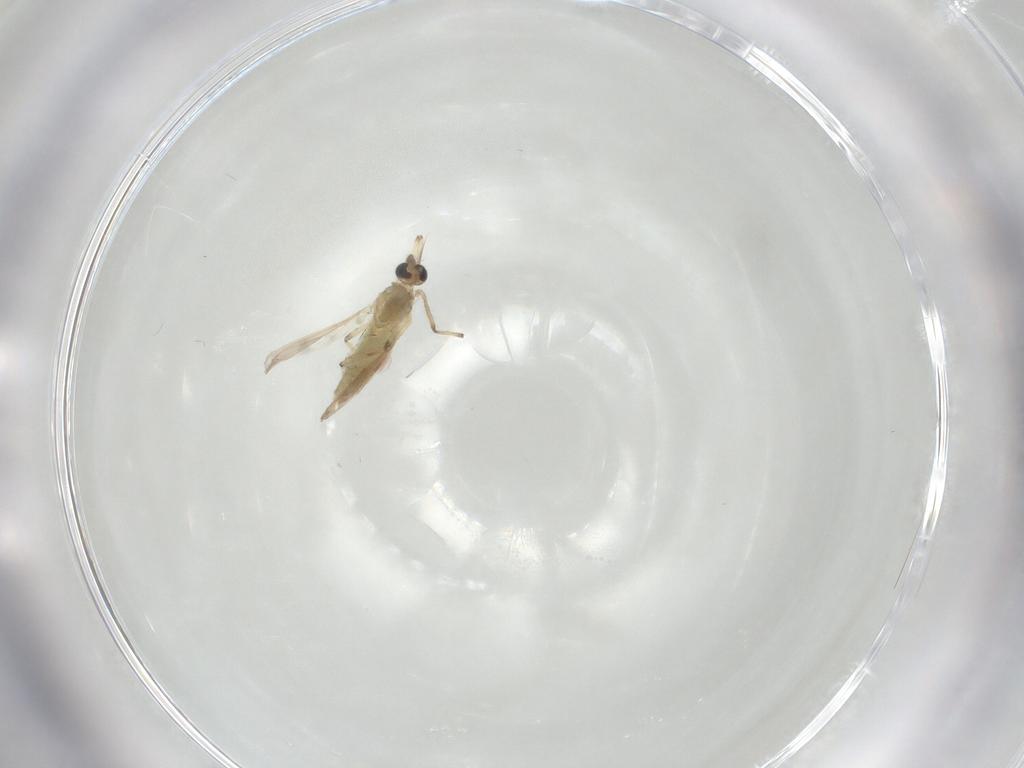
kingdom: Animalia
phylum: Arthropoda
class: Insecta
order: Diptera
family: Chironomidae
